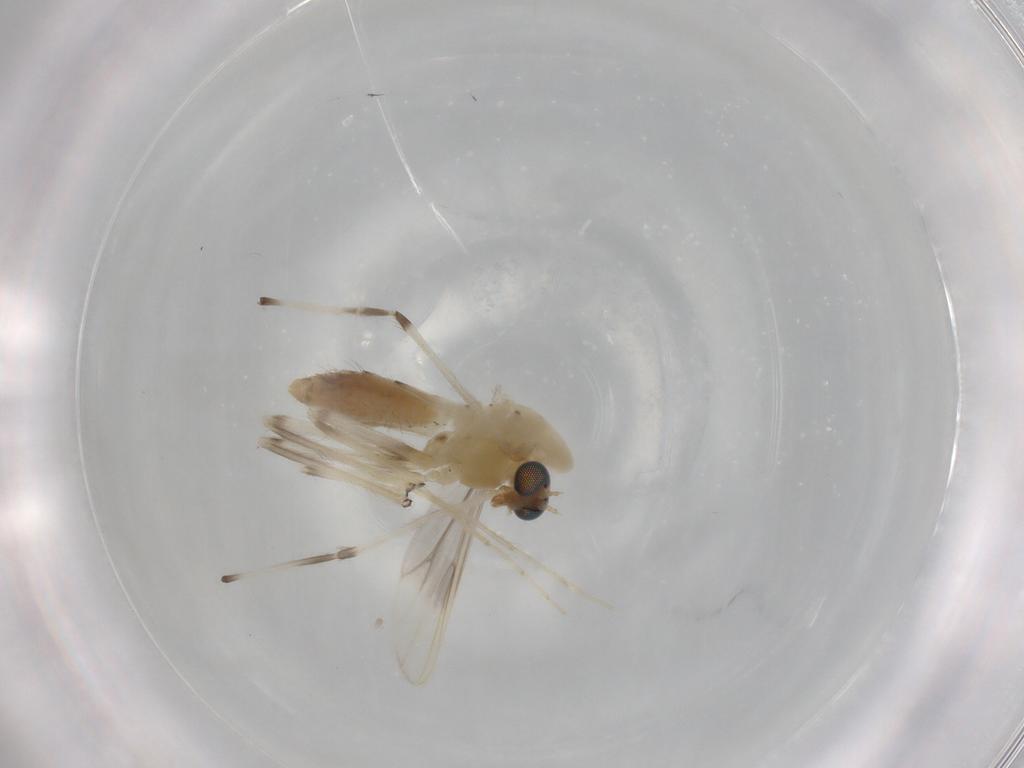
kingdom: Animalia
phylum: Arthropoda
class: Insecta
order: Diptera
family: Chironomidae
